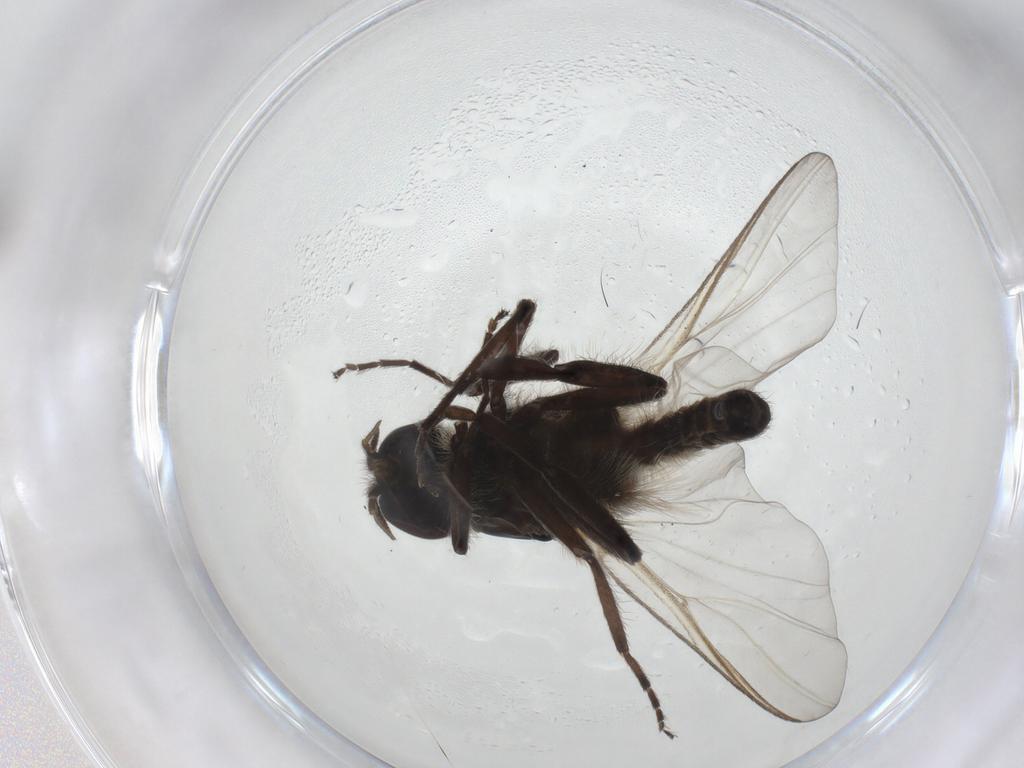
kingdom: Animalia
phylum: Arthropoda
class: Insecta
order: Diptera
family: Simuliidae
